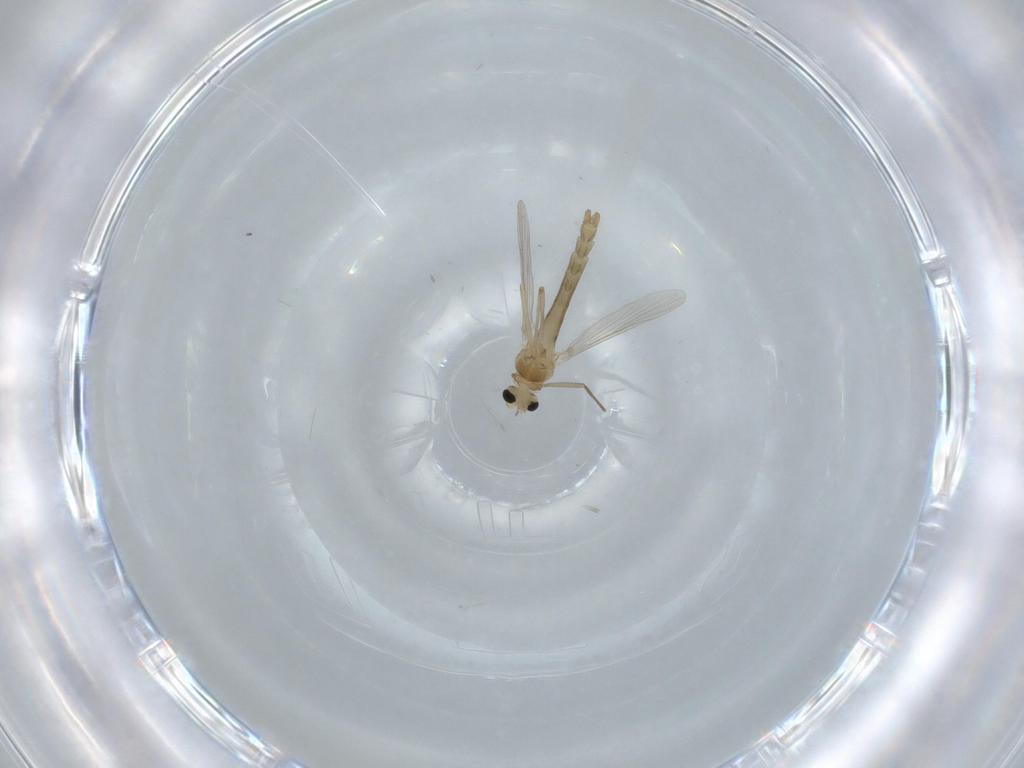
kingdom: Animalia
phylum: Arthropoda
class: Insecta
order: Diptera
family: Chironomidae
